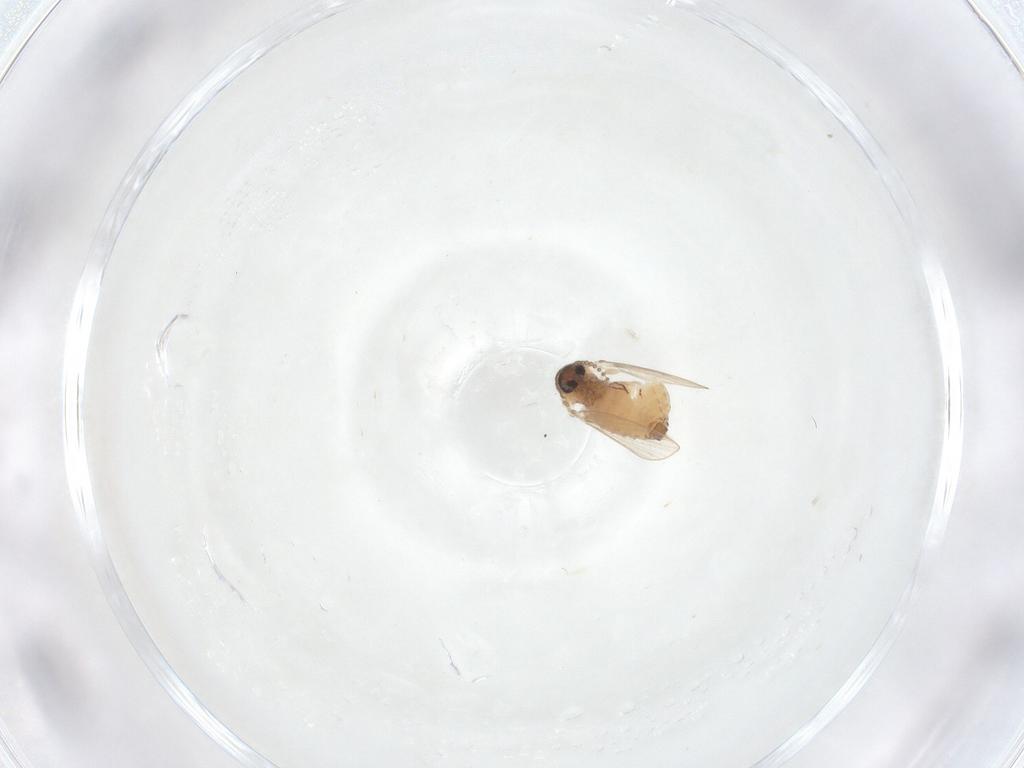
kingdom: Animalia
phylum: Arthropoda
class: Insecta
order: Diptera
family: Psychodidae
